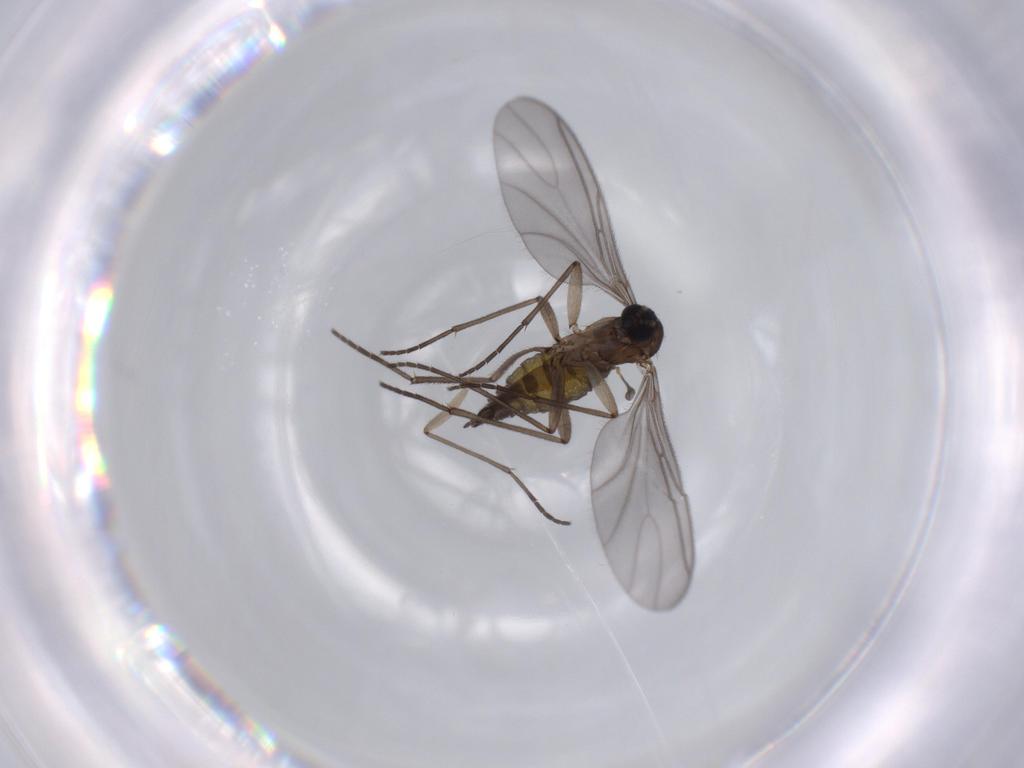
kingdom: Animalia
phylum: Arthropoda
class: Insecta
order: Diptera
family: Sciaridae
